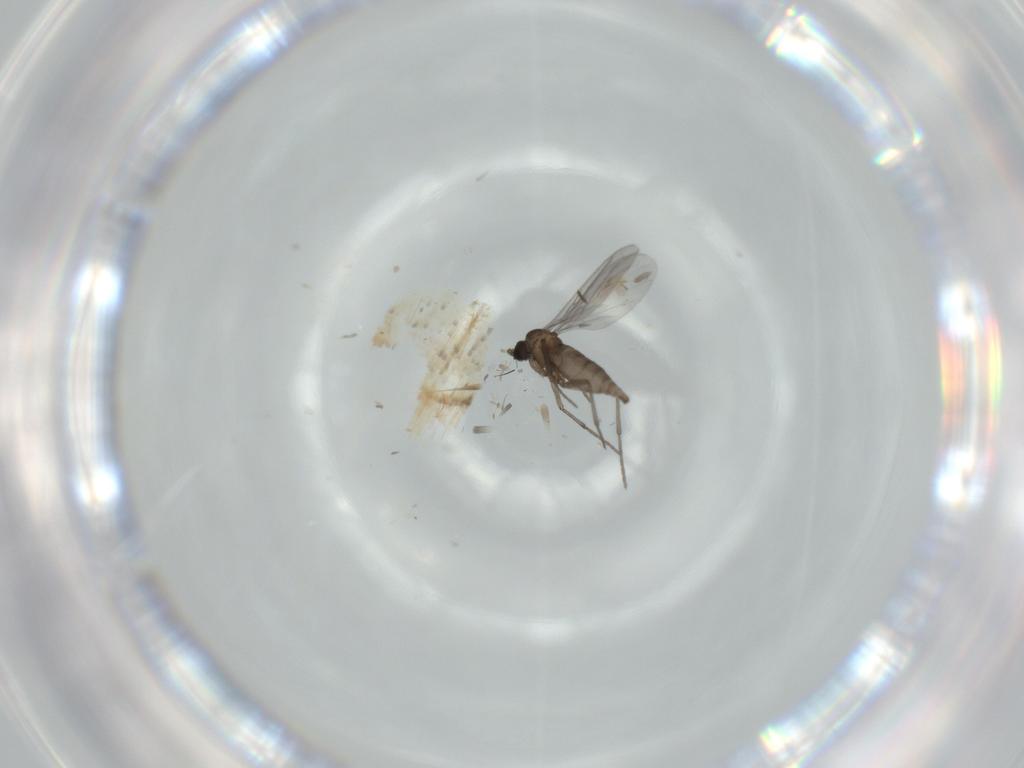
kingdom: Animalia
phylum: Arthropoda
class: Insecta
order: Diptera
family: Sciaridae
